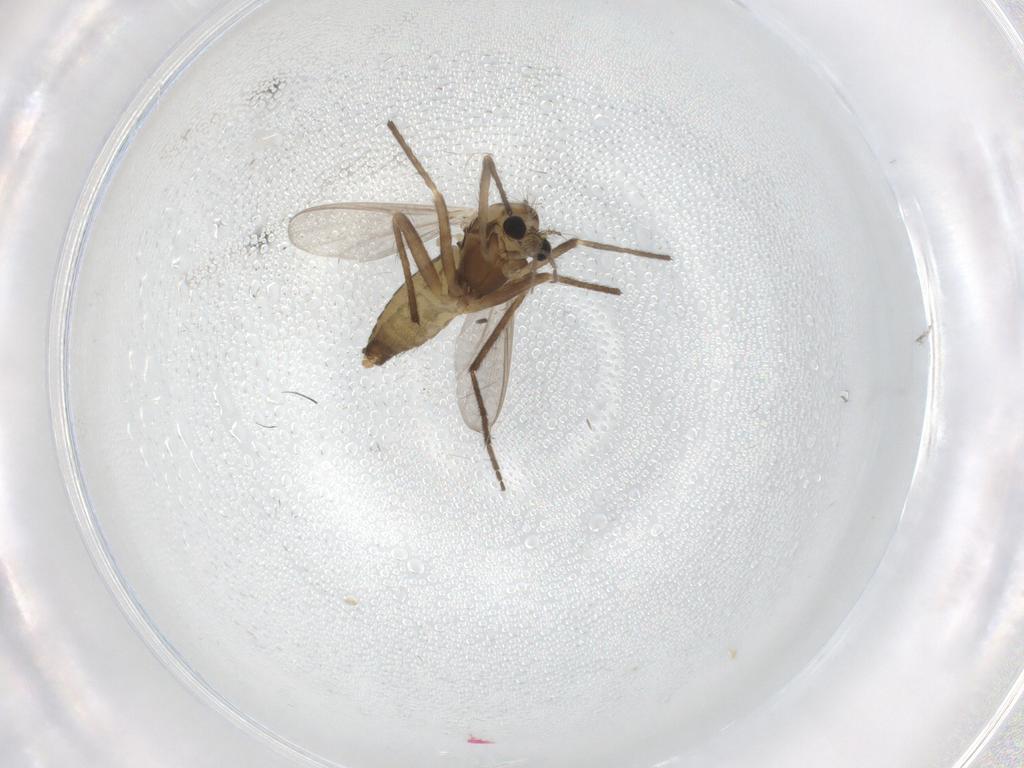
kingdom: Animalia
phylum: Arthropoda
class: Insecta
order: Diptera
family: Chironomidae
